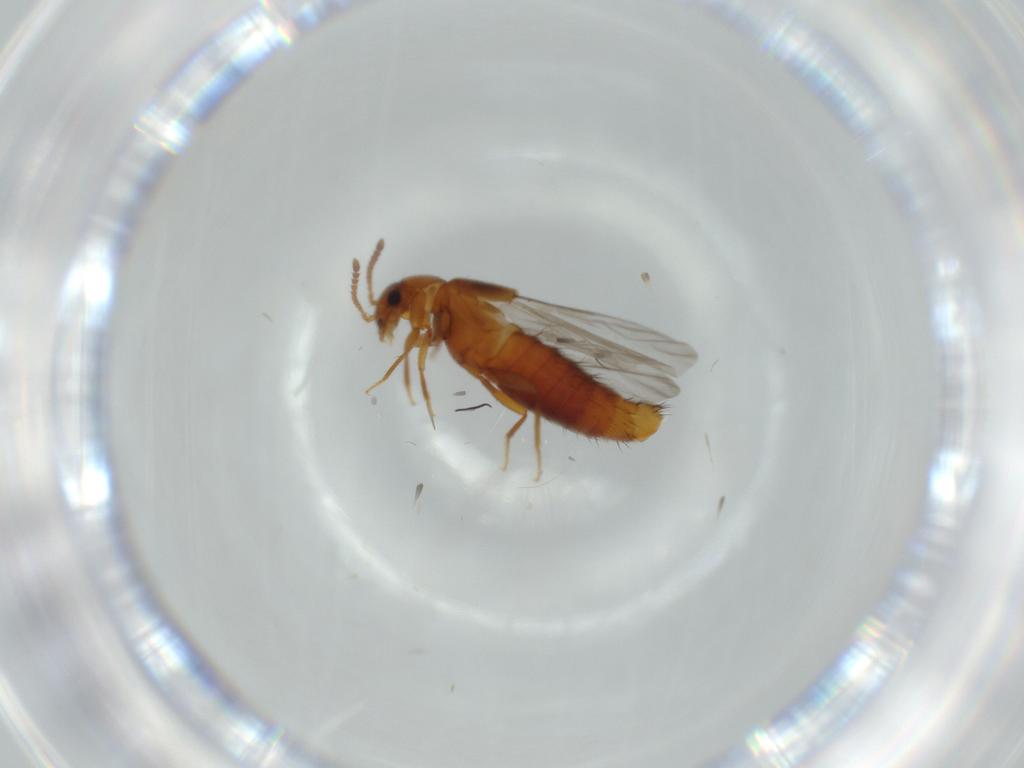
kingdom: Animalia
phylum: Arthropoda
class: Insecta
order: Coleoptera
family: Staphylinidae
